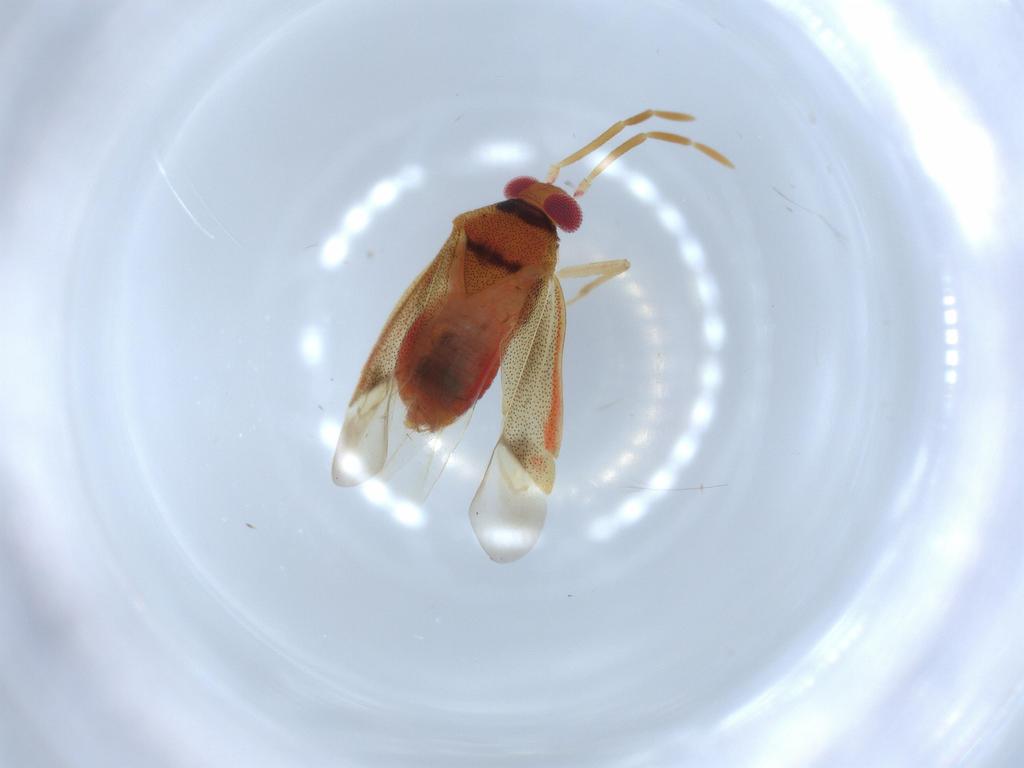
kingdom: Animalia
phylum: Arthropoda
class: Insecta
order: Hemiptera
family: Miridae
